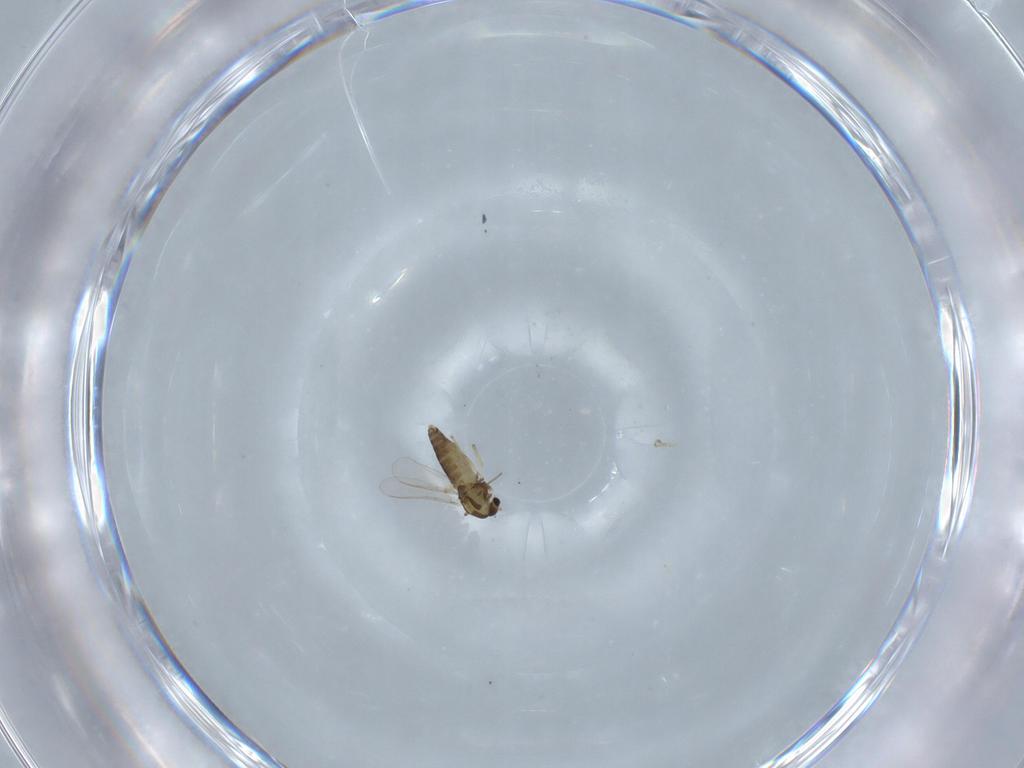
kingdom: Animalia
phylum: Arthropoda
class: Insecta
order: Diptera
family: Chironomidae
